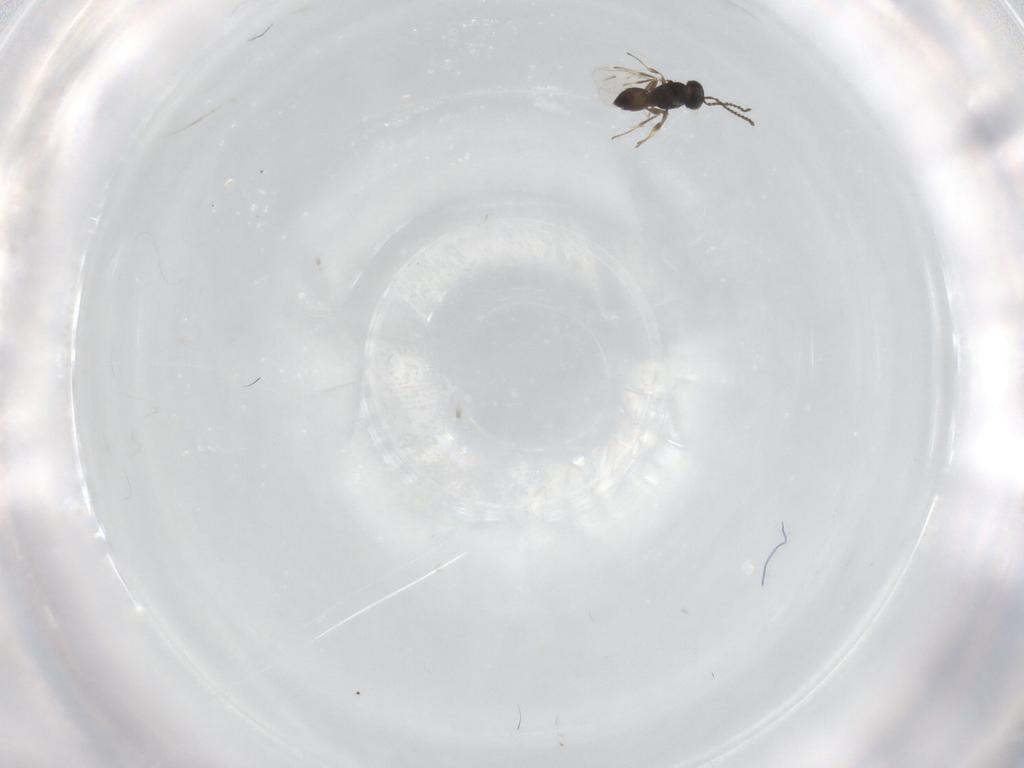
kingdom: Animalia
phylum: Arthropoda
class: Insecta
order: Hymenoptera
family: Scelionidae
